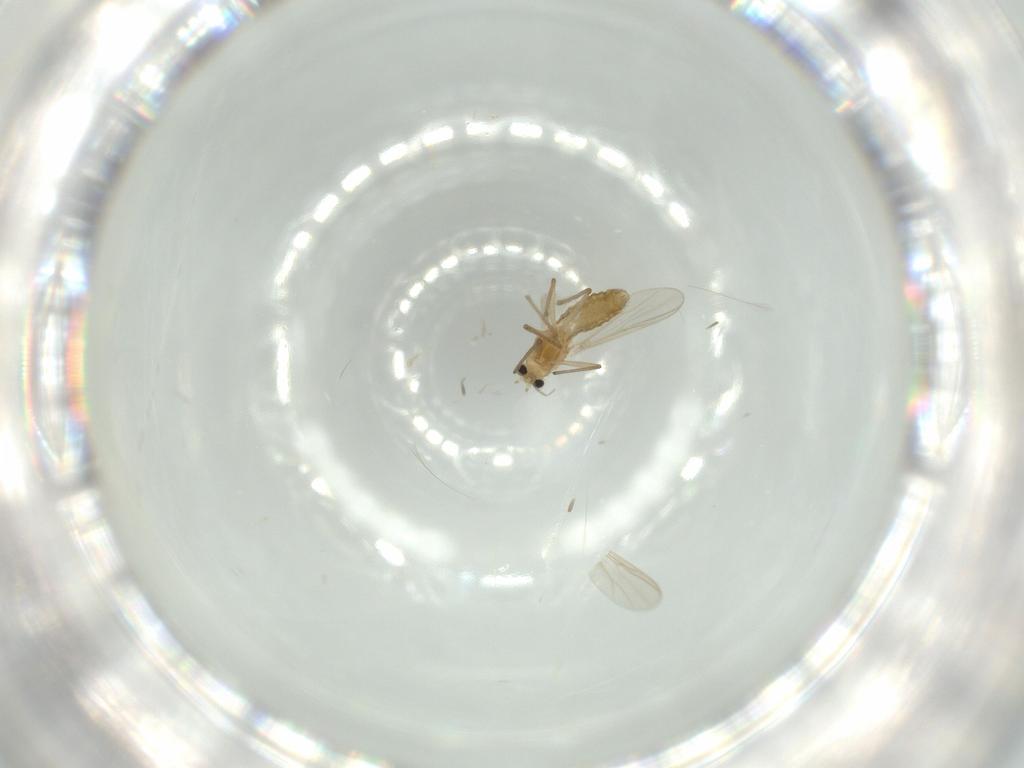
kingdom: Animalia
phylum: Arthropoda
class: Insecta
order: Diptera
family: Chironomidae
